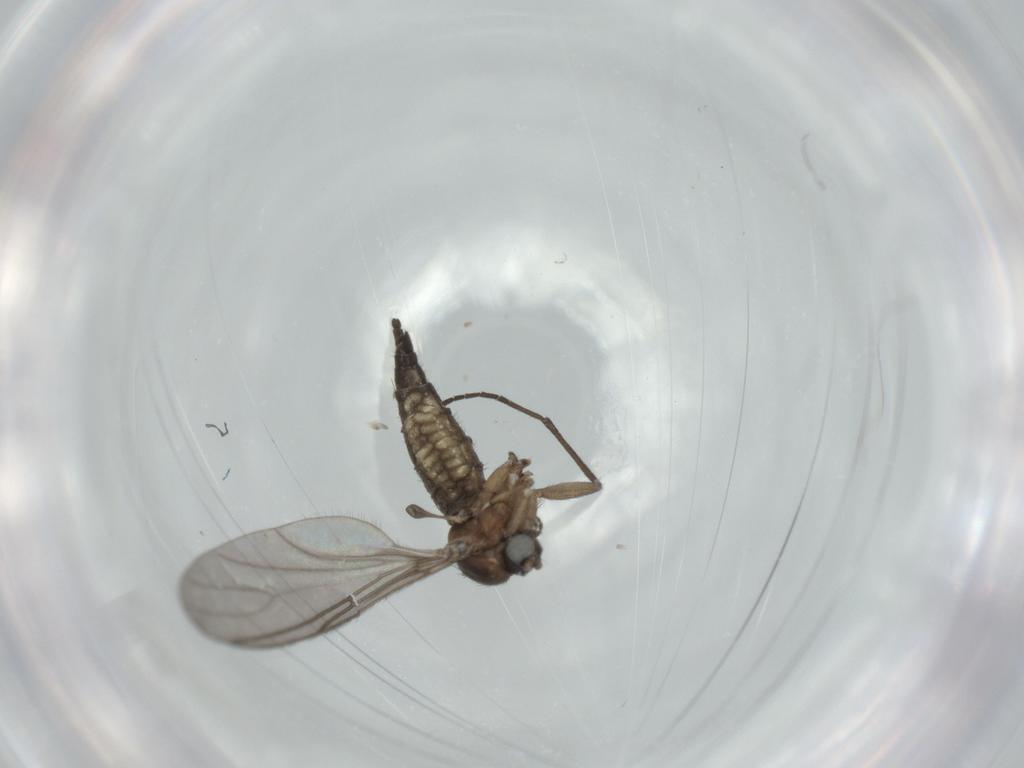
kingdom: Animalia
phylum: Arthropoda
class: Insecta
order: Diptera
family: Sciaridae
